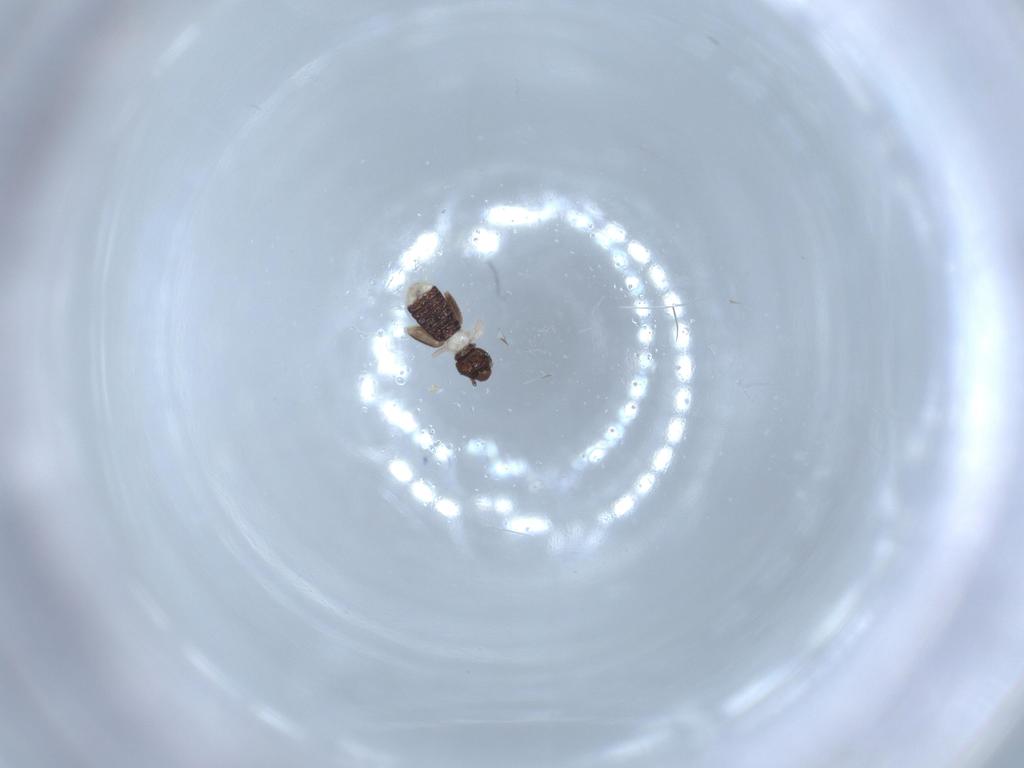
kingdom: Animalia
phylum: Arthropoda
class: Insecta
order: Psocodea
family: Liposcelididae
